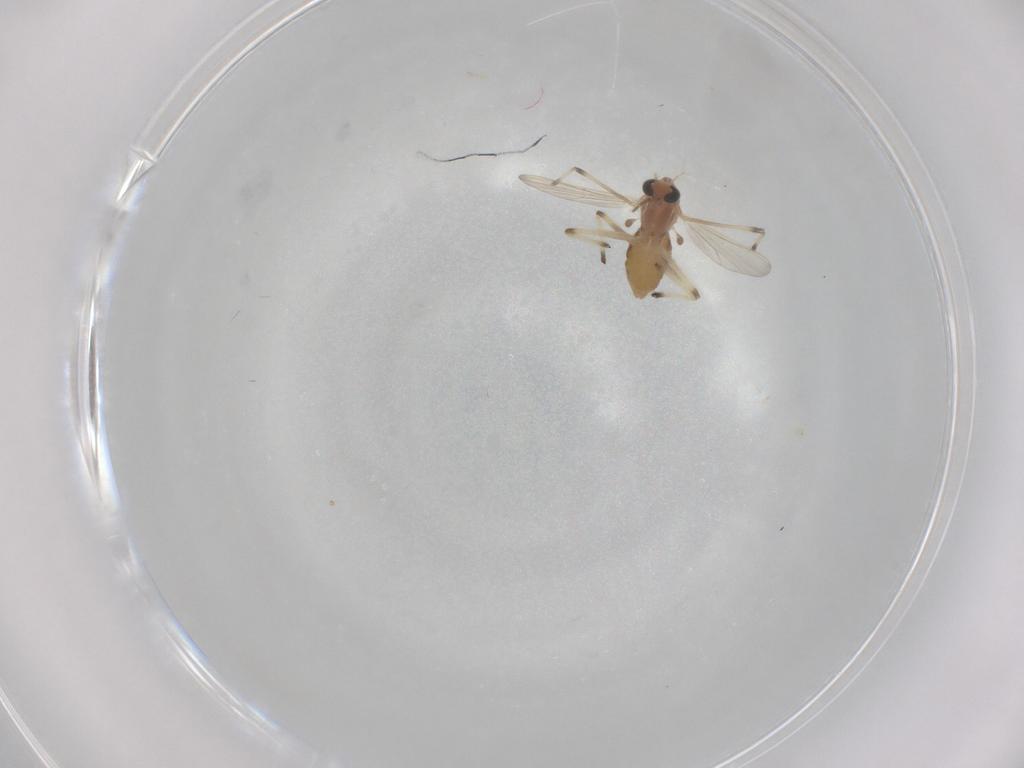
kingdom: Animalia
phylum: Arthropoda
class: Insecta
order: Diptera
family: Chironomidae
